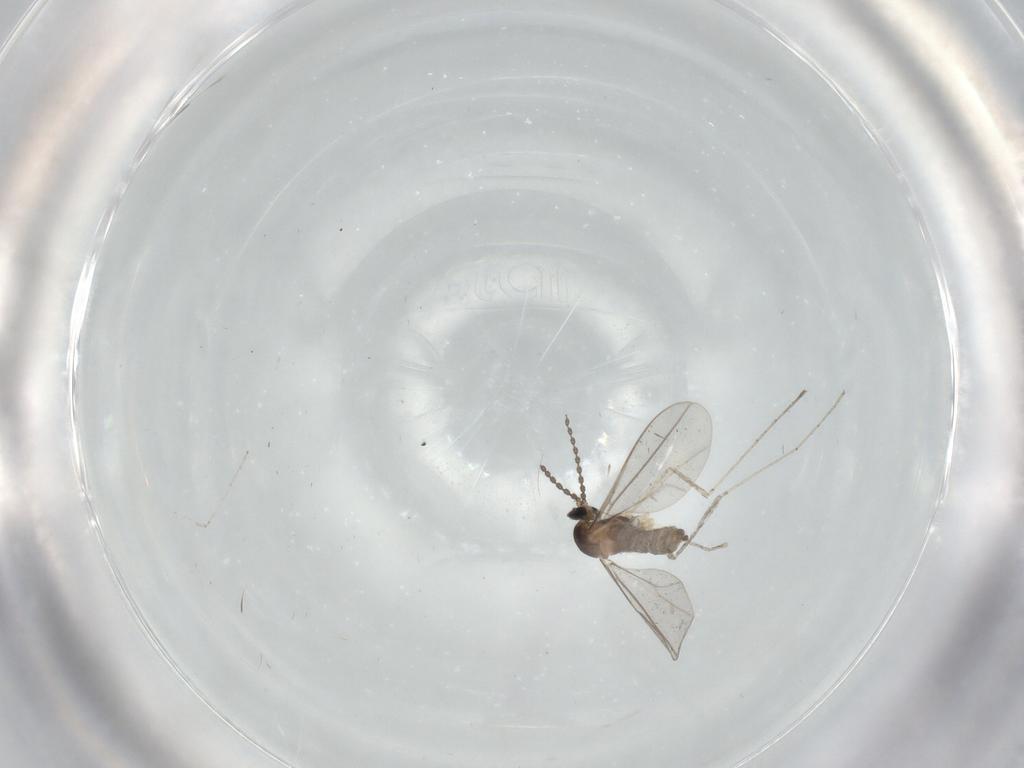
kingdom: Animalia
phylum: Arthropoda
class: Insecta
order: Diptera
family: Cecidomyiidae
